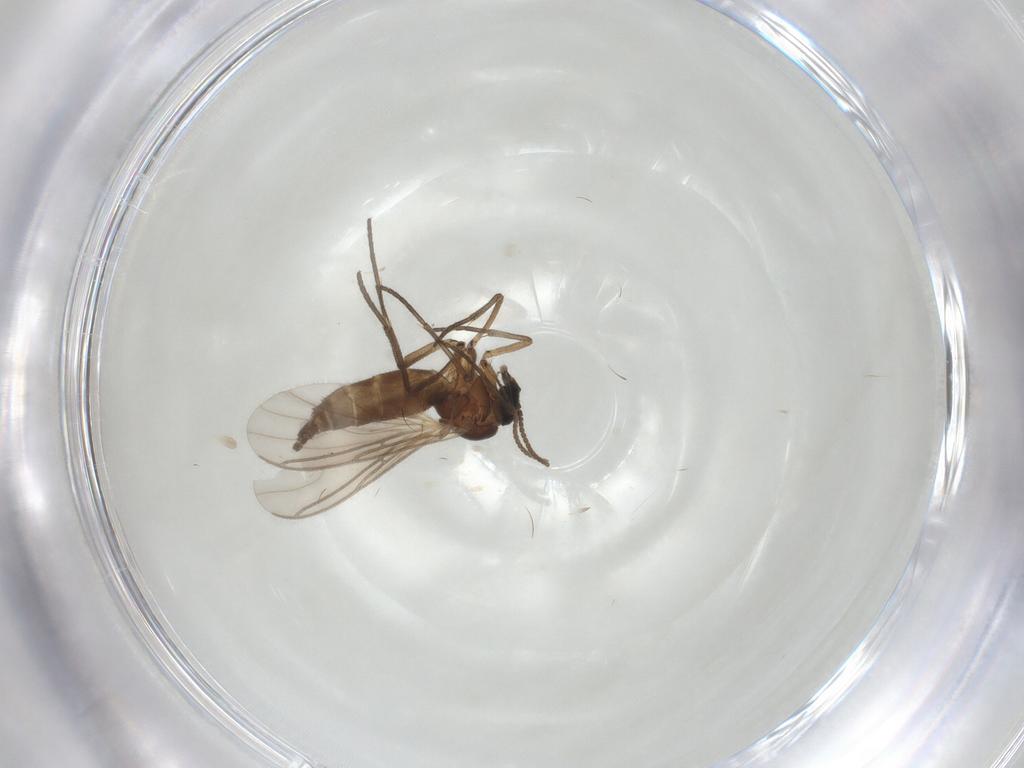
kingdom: Animalia
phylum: Arthropoda
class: Insecta
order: Diptera
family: Sciaridae
